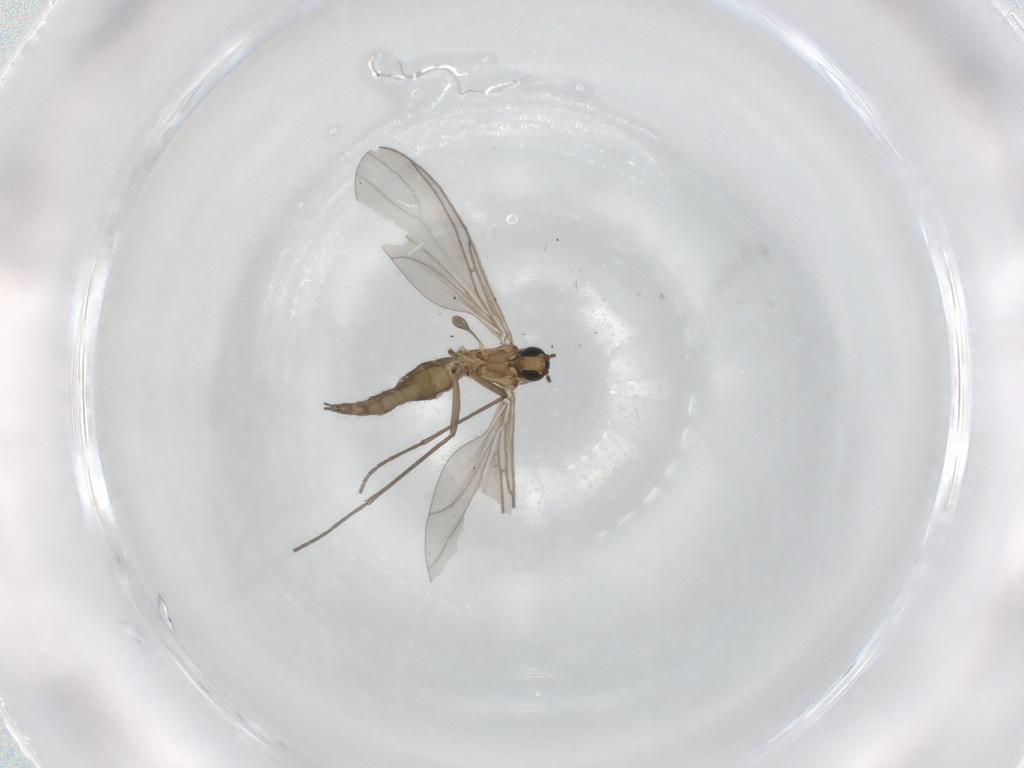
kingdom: Animalia
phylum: Arthropoda
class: Insecta
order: Diptera
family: Sciaridae
